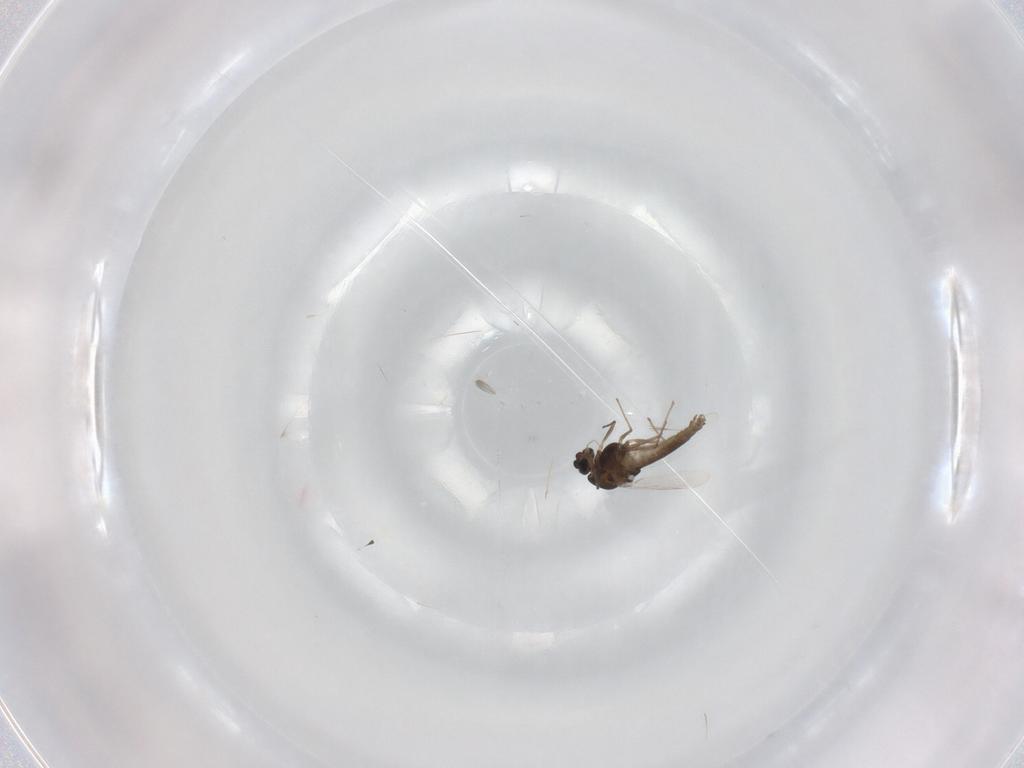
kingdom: Animalia
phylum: Arthropoda
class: Insecta
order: Diptera
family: Chironomidae
